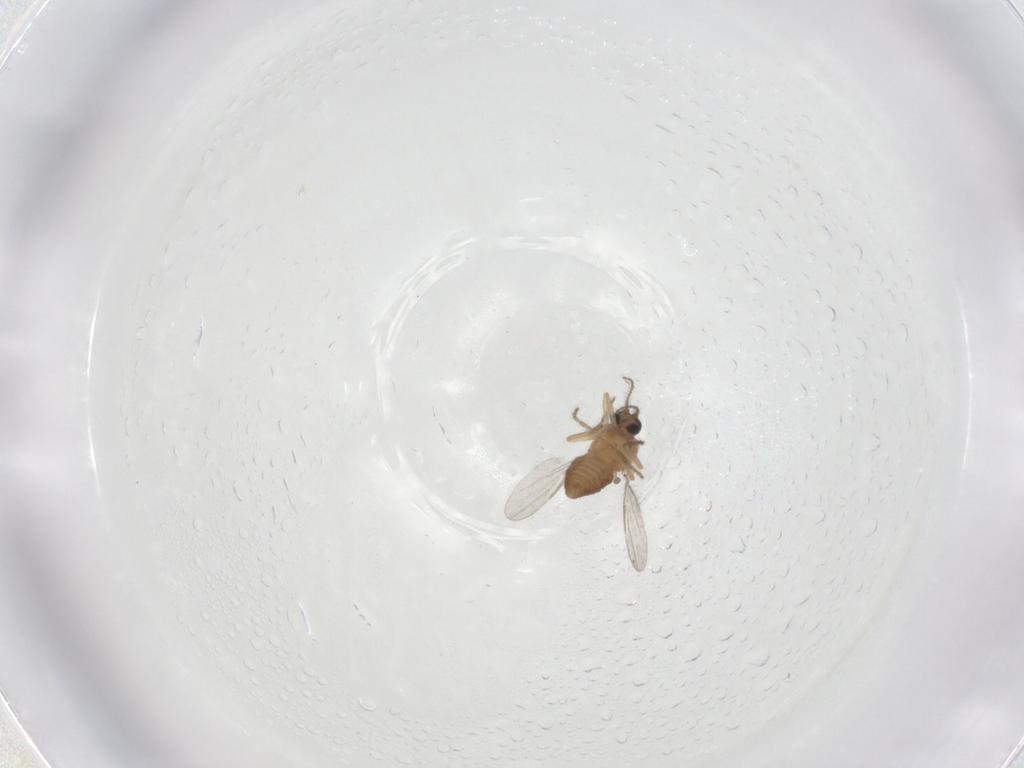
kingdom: Animalia
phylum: Arthropoda
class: Insecta
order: Diptera
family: Ceratopogonidae
